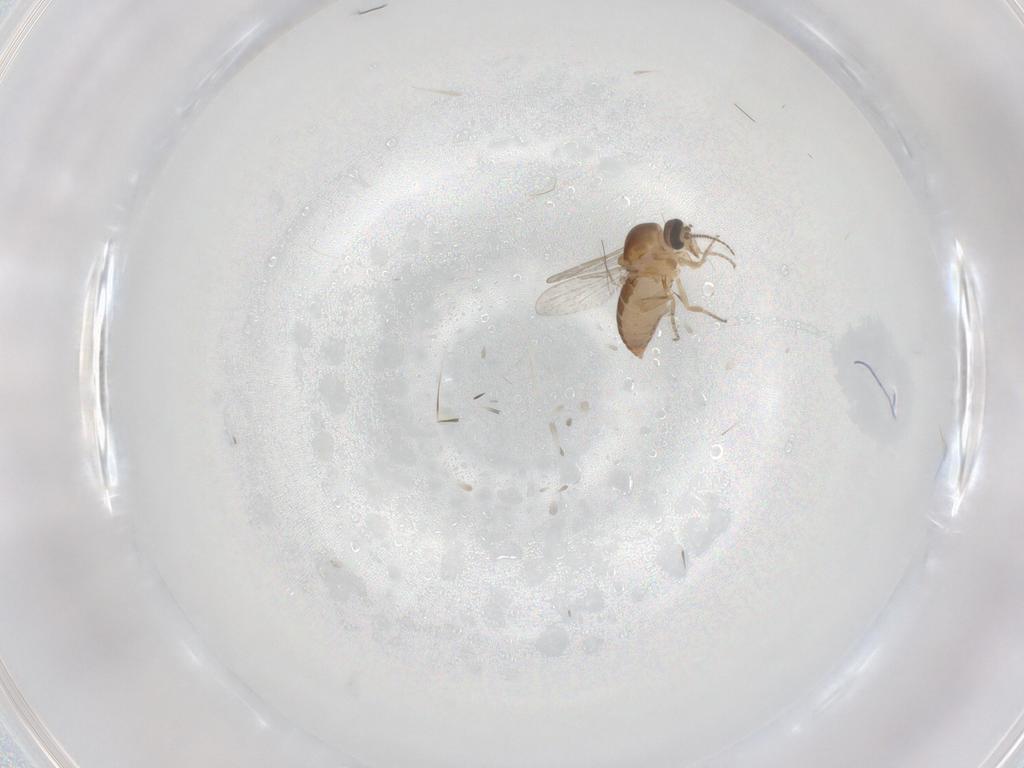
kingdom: Animalia
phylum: Arthropoda
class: Insecta
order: Diptera
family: Ceratopogonidae
